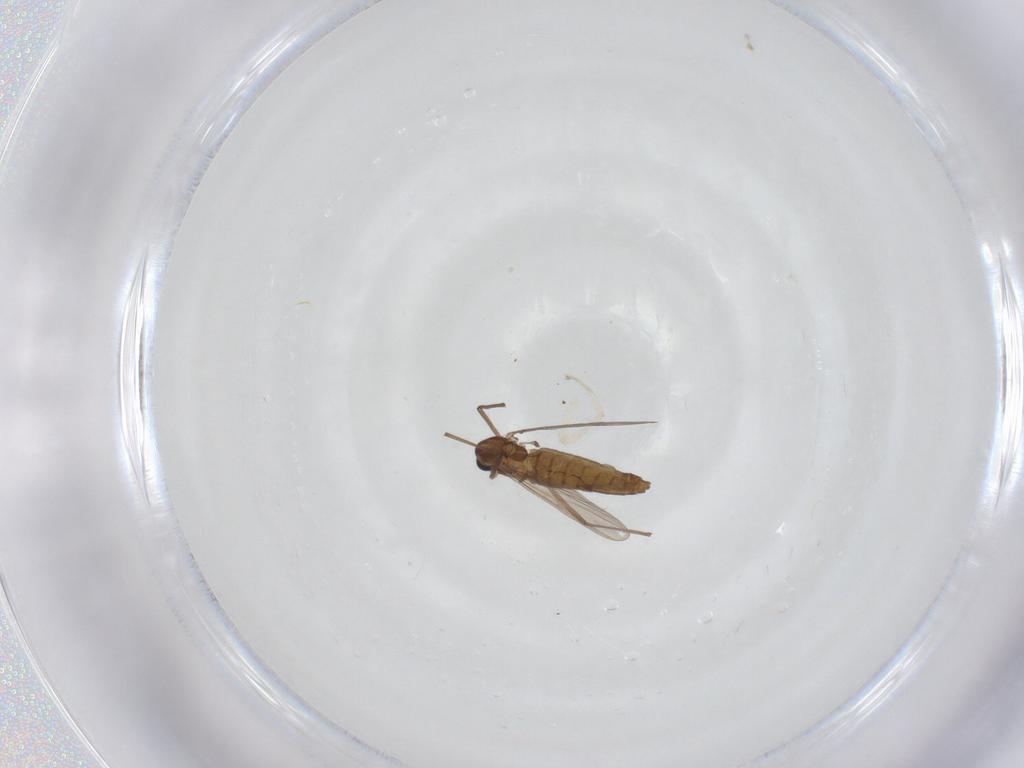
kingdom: Animalia
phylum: Arthropoda
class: Insecta
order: Diptera
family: Chironomidae
